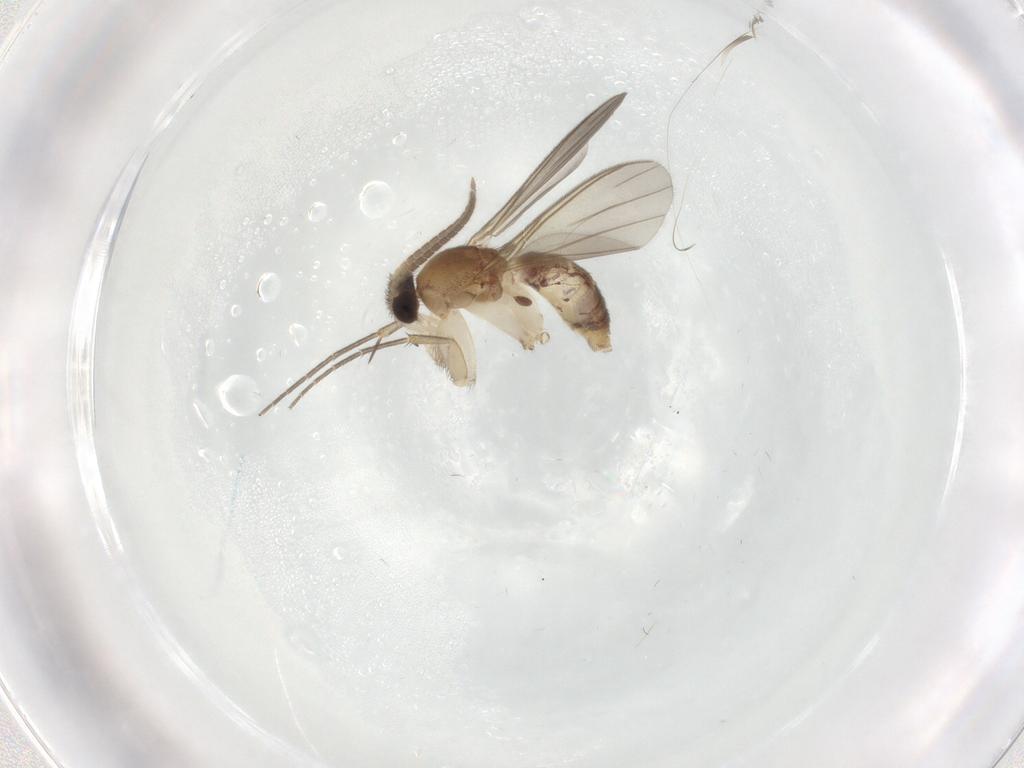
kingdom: Animalia
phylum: Arthropoda
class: Insecta
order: Diptera
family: Mycetophilidae
